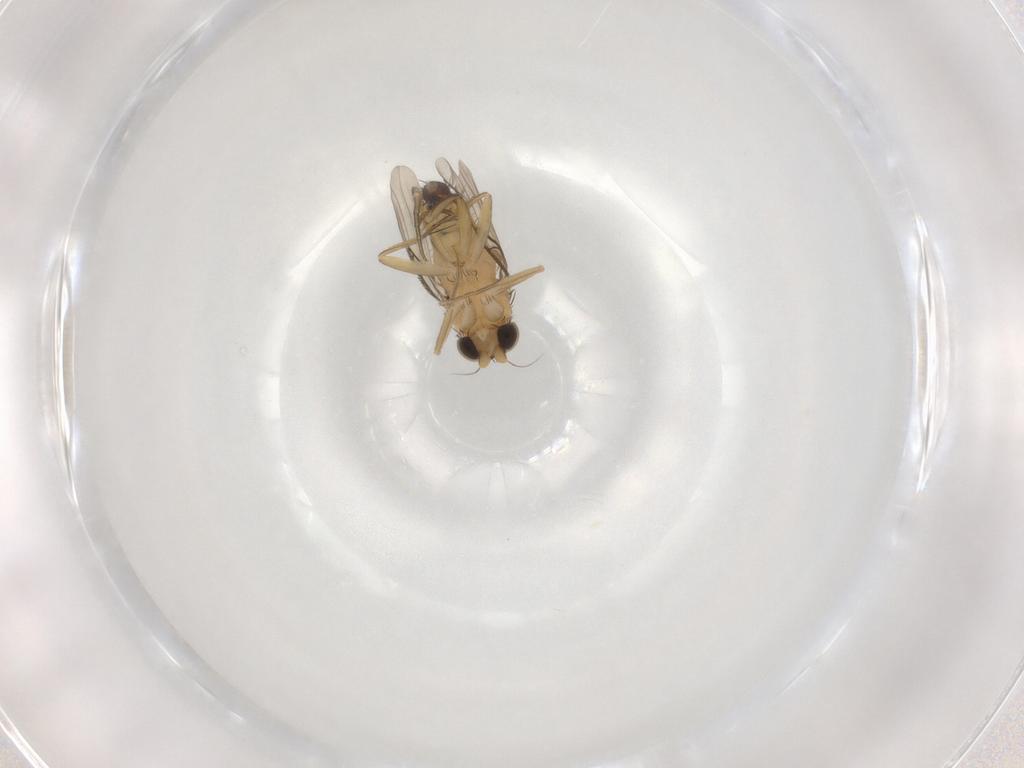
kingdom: Animalia
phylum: Arthropoda
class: Insecta
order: Diptera
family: Phoridae
